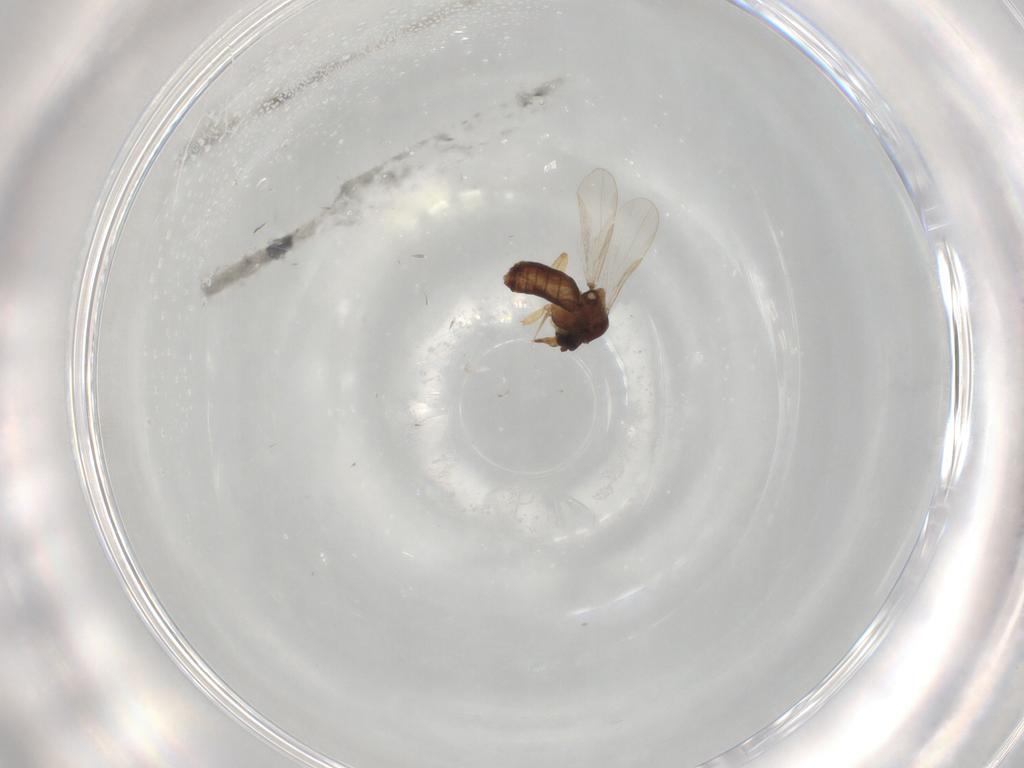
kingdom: Animalia
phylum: Arthropoda
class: Insecta
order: Diptera
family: Ceratopogonidae
